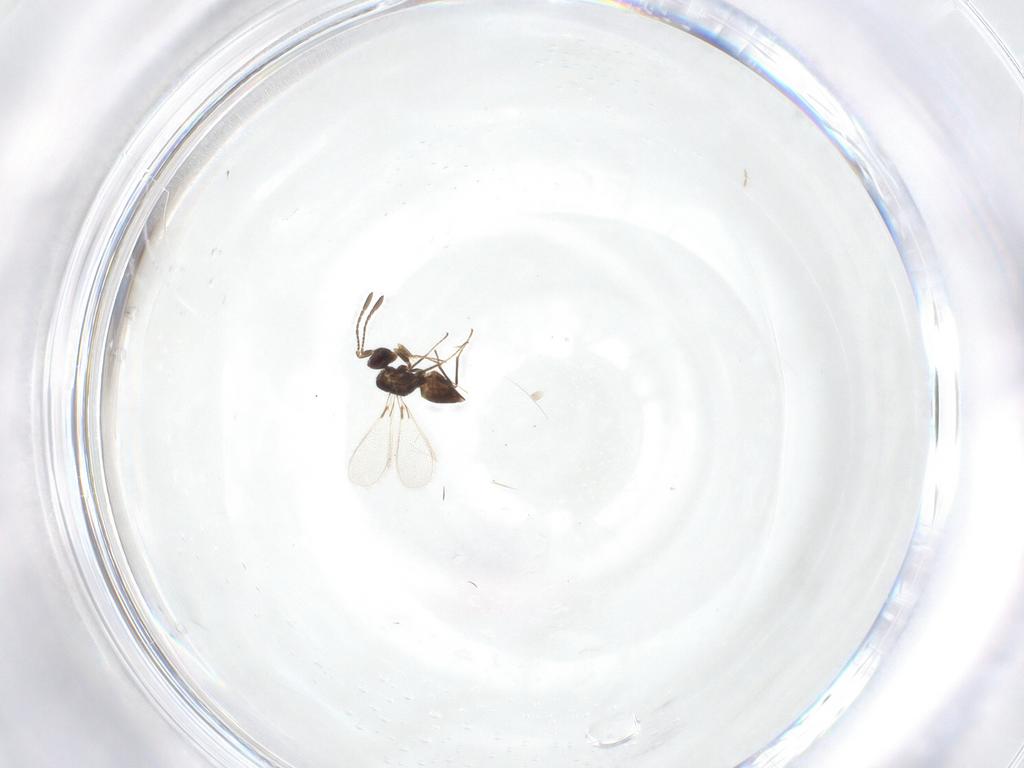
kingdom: Animalia
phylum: Arthropoda
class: Insecta
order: Hymenoptera
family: Mymaridae
